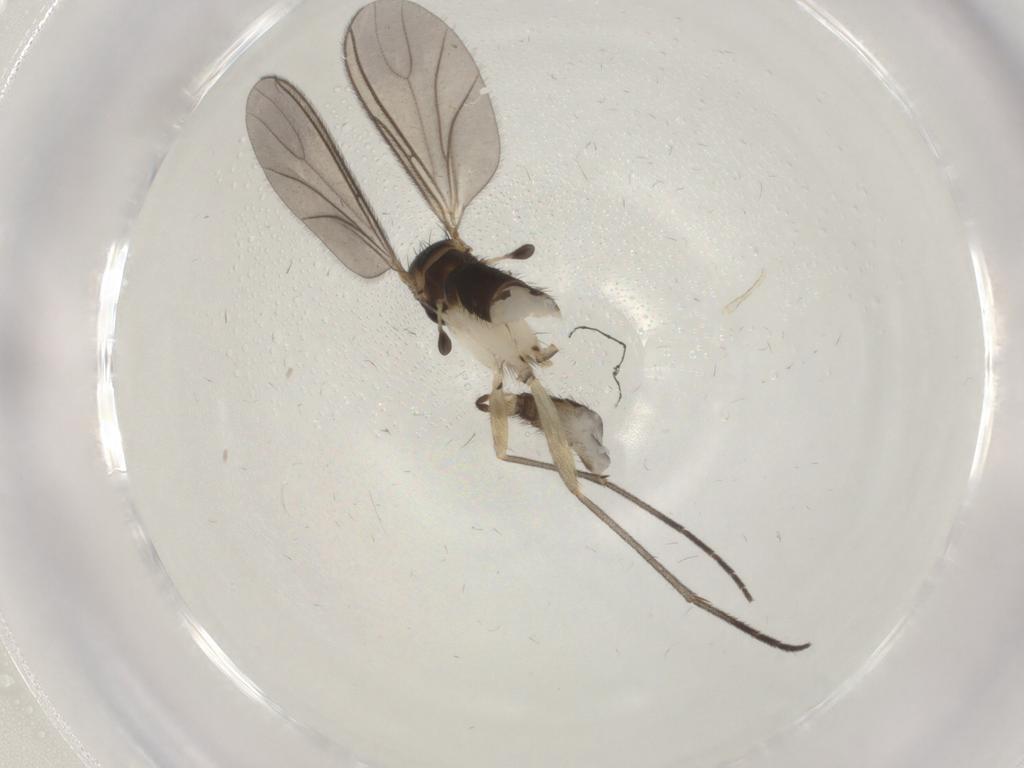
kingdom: Animalia
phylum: Arthropoda
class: Insecta
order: Diptera
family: Sciaridae
